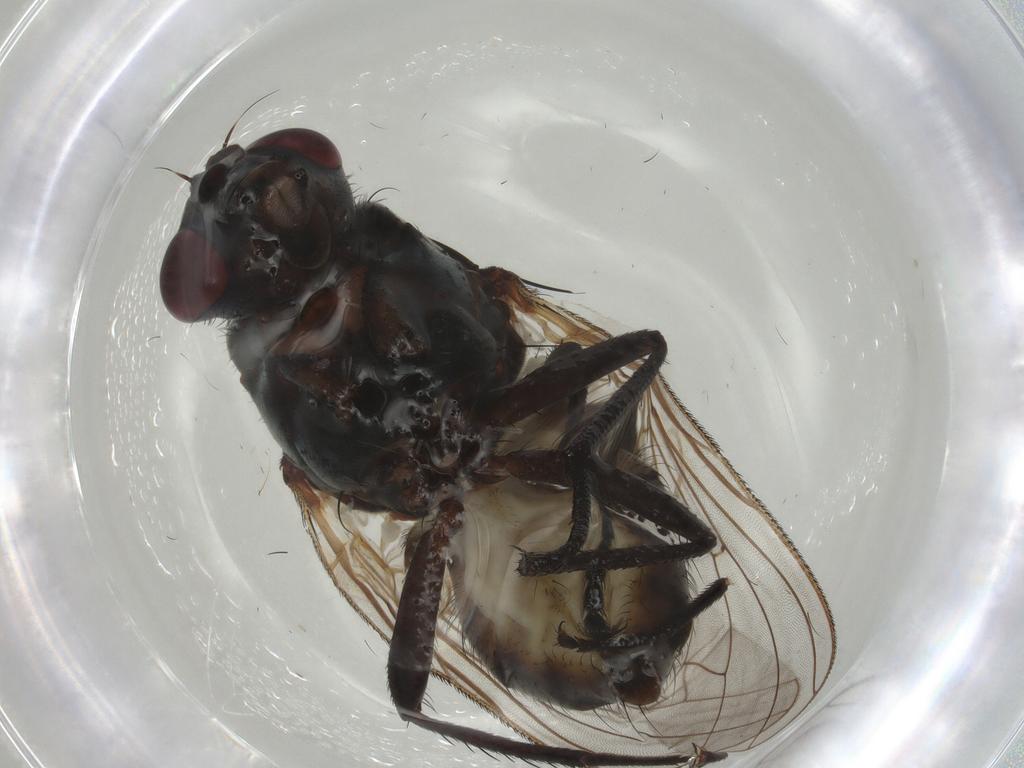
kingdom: Animalia
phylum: Arthropoda
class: Insecta
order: Diptera
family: Anthomyiidae
